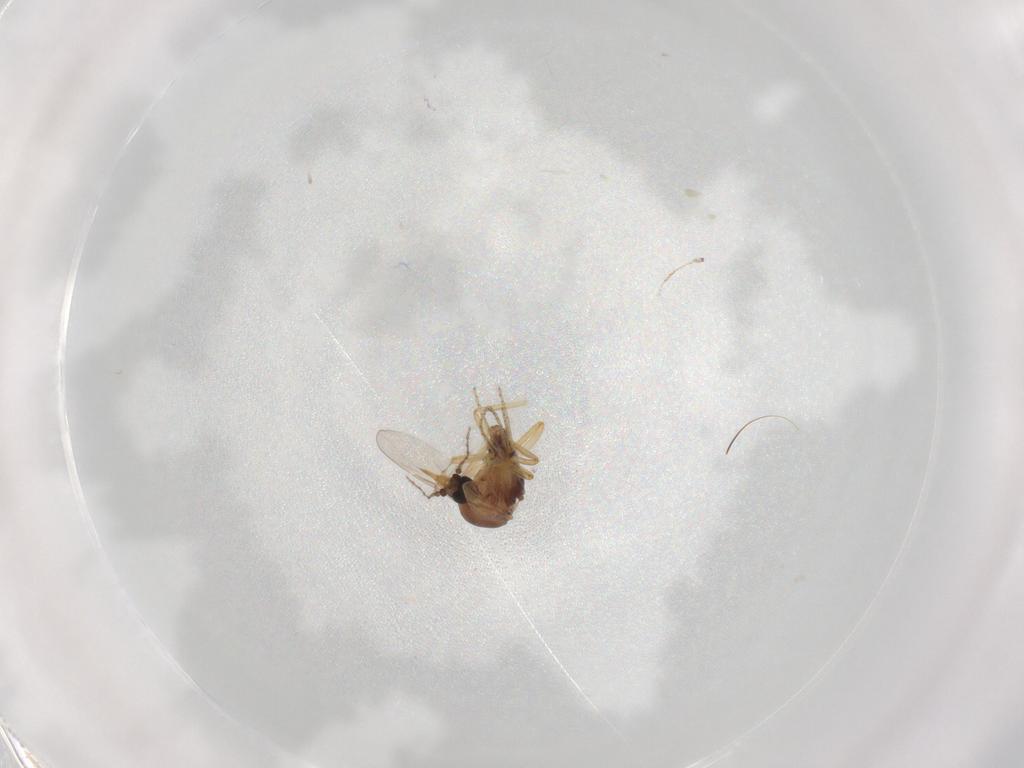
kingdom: Animalia
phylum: Arthropoda
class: Insecta
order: Diptera
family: Ceratopogonidae
